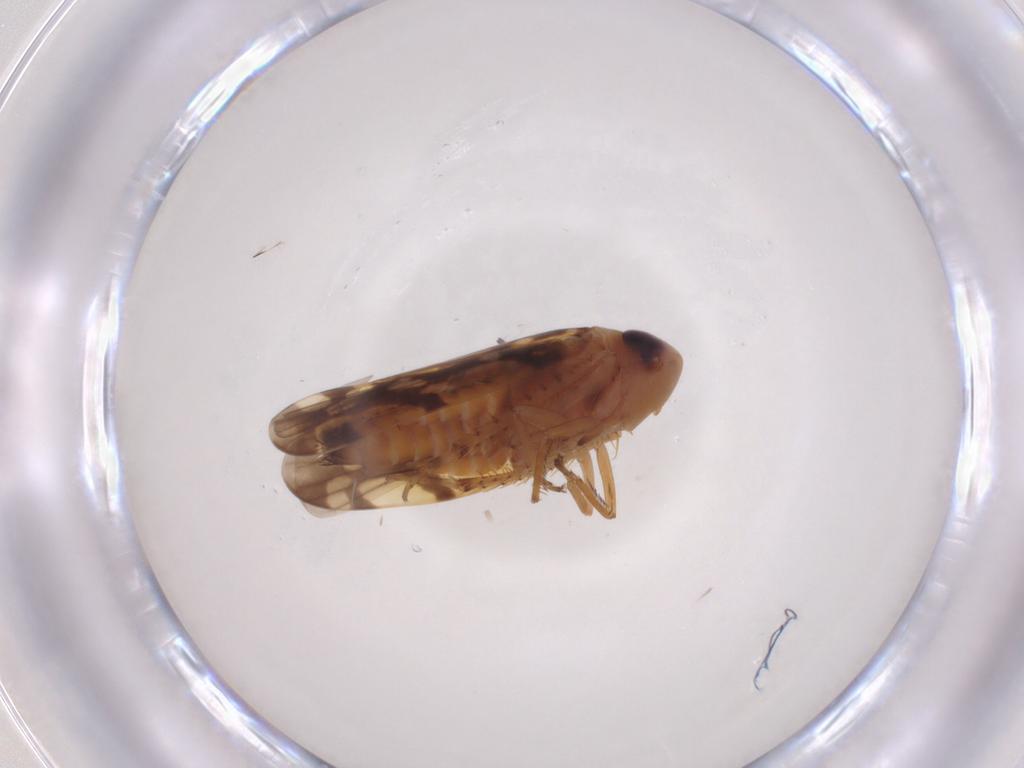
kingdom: Animalia
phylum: Arthropoda
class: Insecta
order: Hemiptera
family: Cicadellidae
